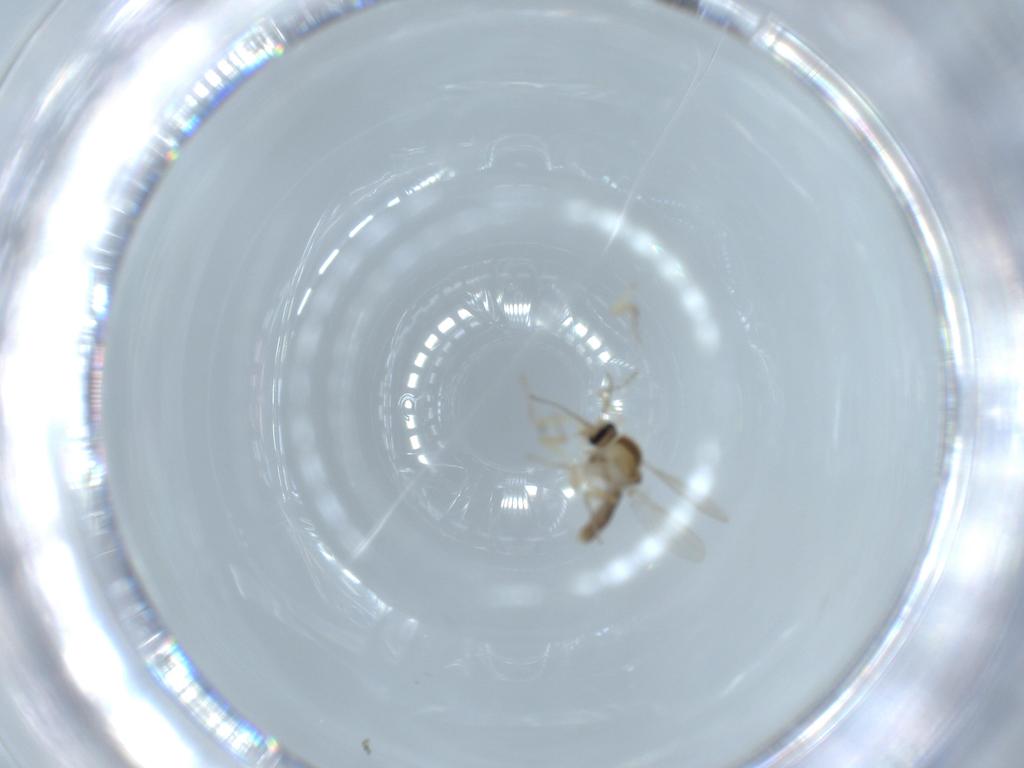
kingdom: Animalia
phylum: Arthropoda
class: Insecta
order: Diptera
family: Ceratopogonidae
